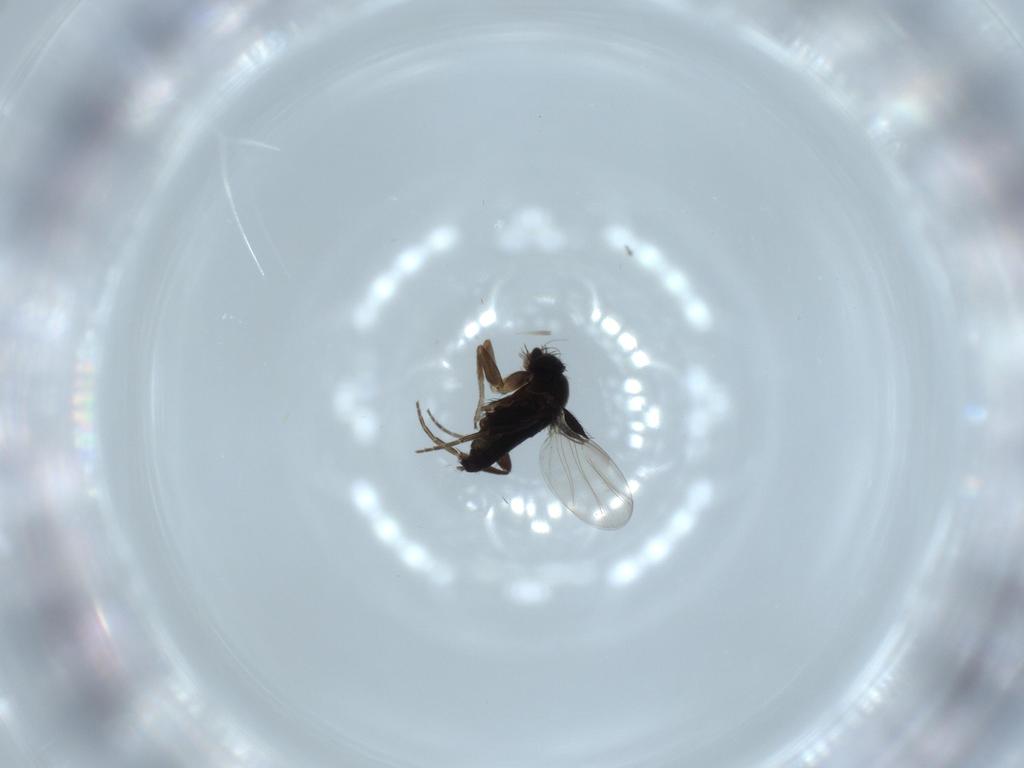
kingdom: Animalia
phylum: Arthropoda
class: Insecta
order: Diptera
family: Phoridae
